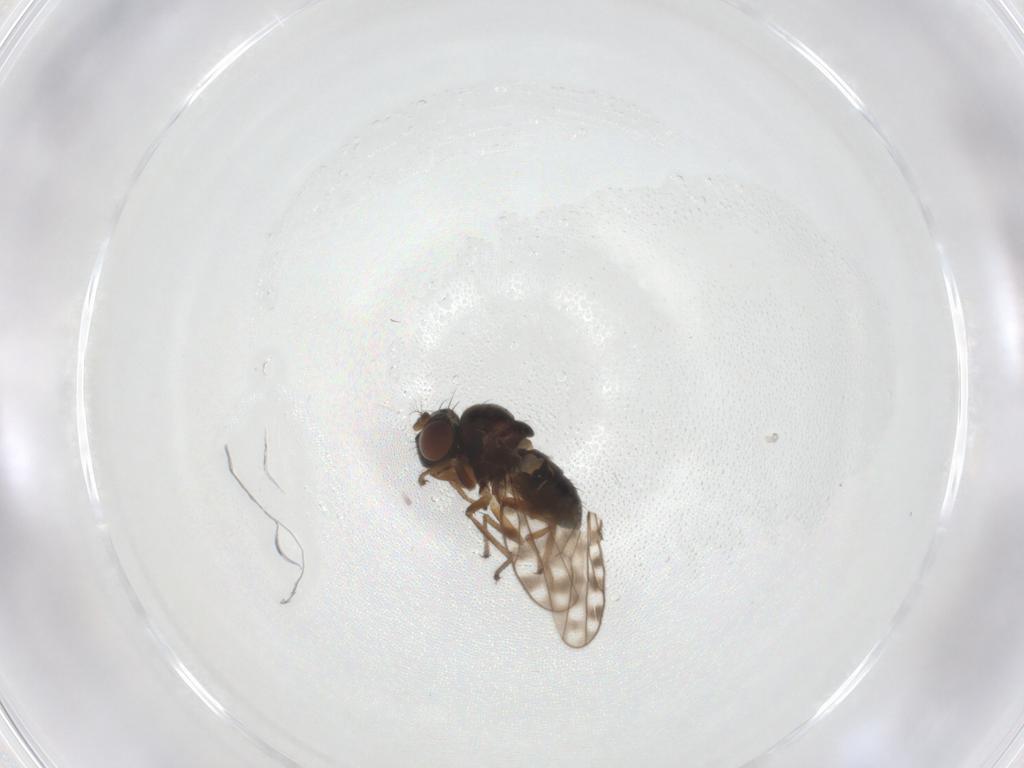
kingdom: Animalia
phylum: Arthropoda
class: Insecta
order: Diptera
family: Ephydridae
